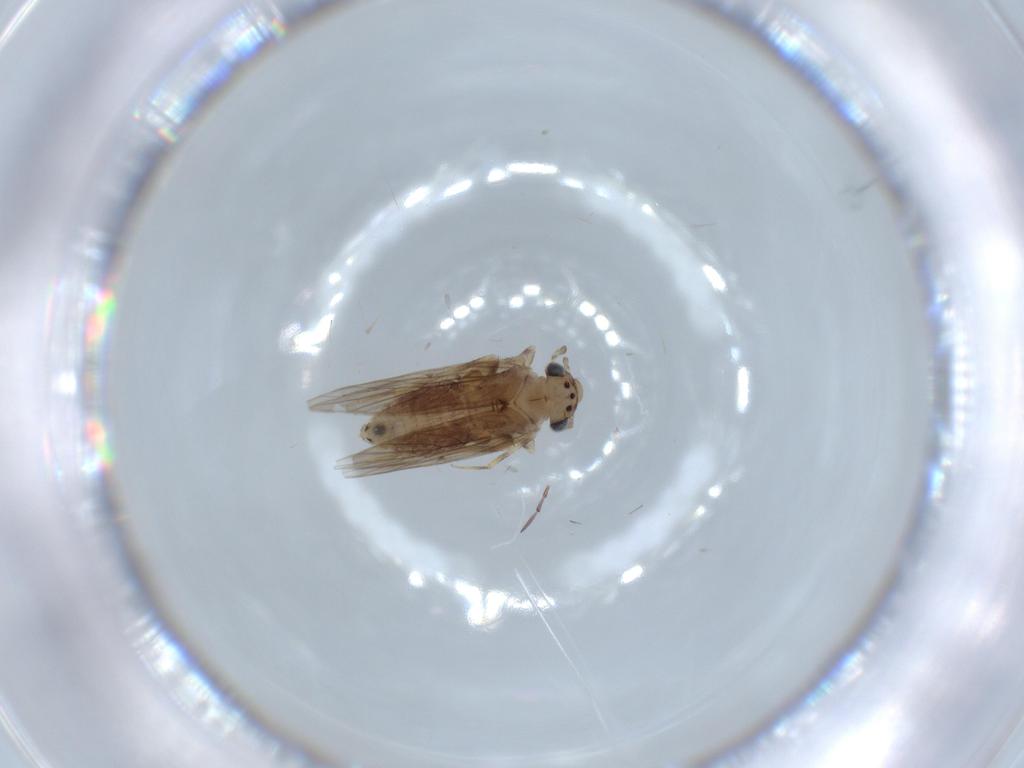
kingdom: Animalia
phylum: Arthropoda
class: Insecta
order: Psocodea
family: Lepidopsocidae
